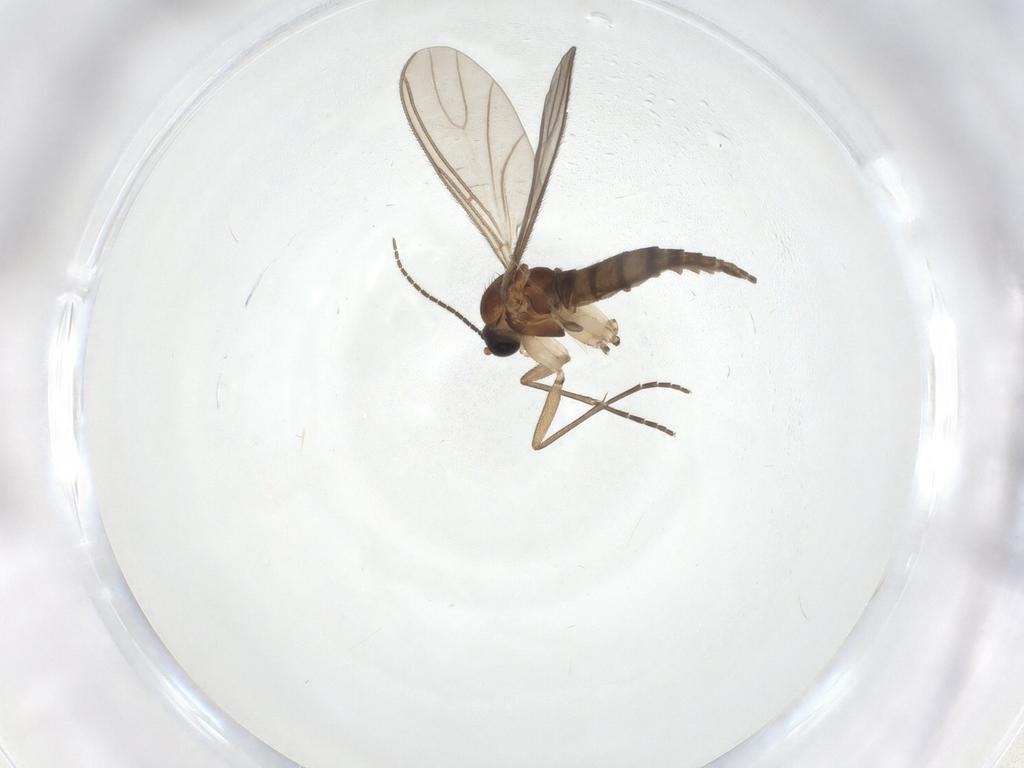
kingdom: Animalia
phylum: Arthropoda
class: Insecta
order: Diptera
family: Sciaridae
